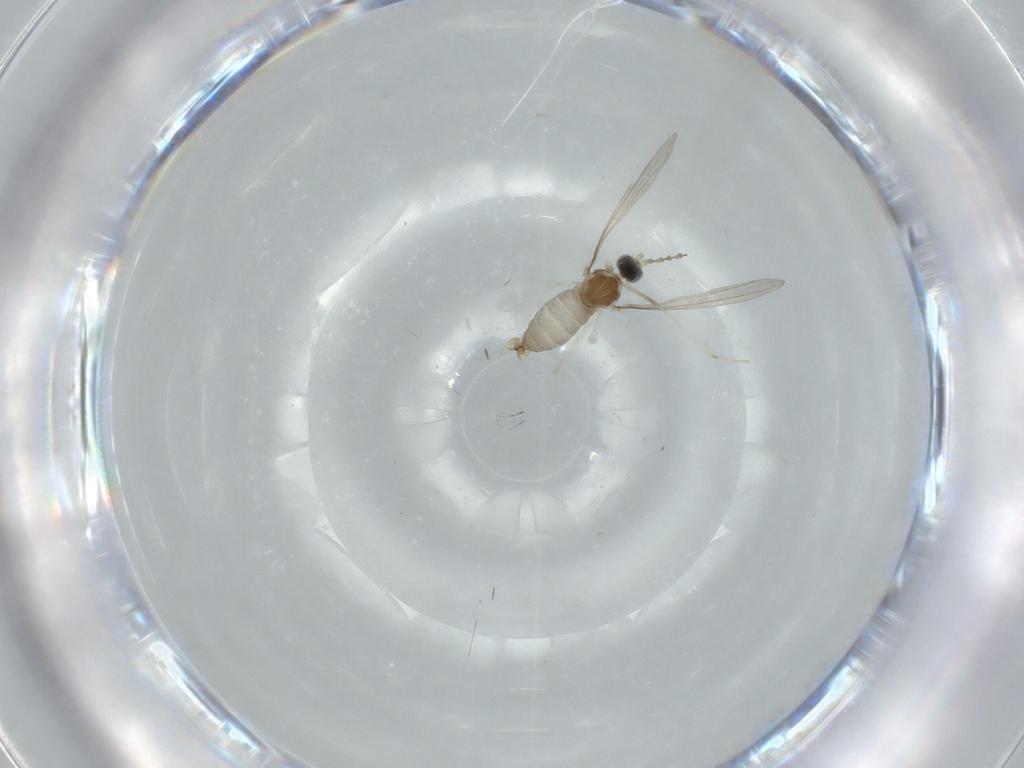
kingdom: Animalia
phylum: Arthropoda
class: Insecta
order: Diptera
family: Cecidomyiidae
